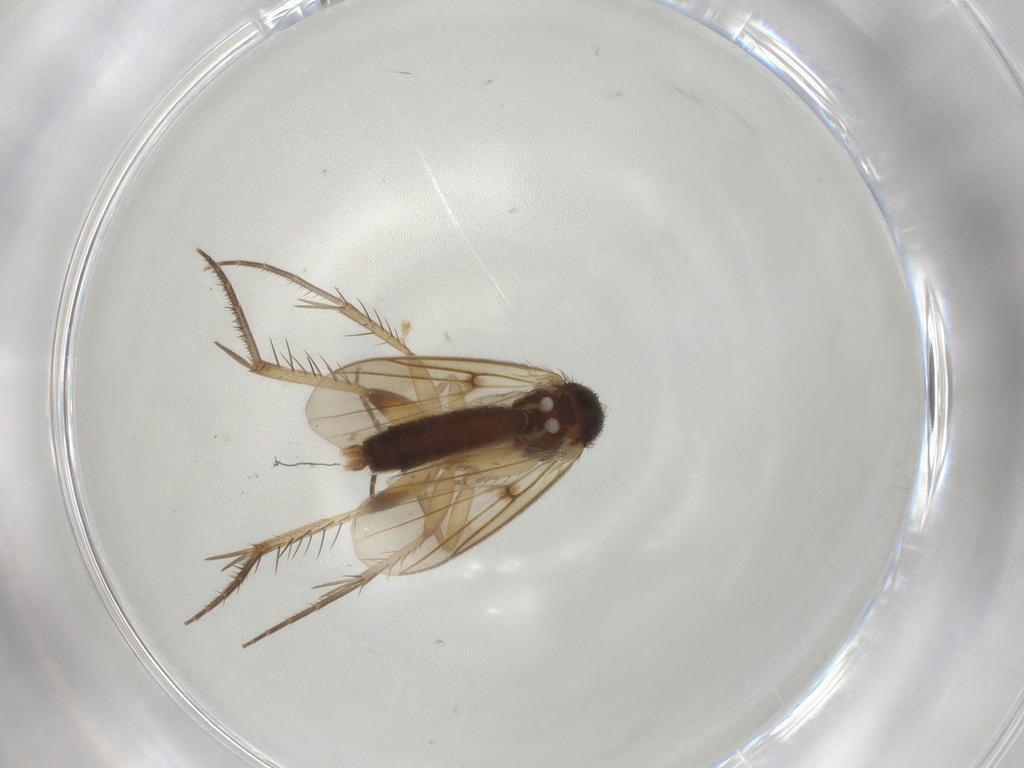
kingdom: Animalia
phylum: Arthropoda
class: Insecta
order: Diptera
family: Mycetophilidae
